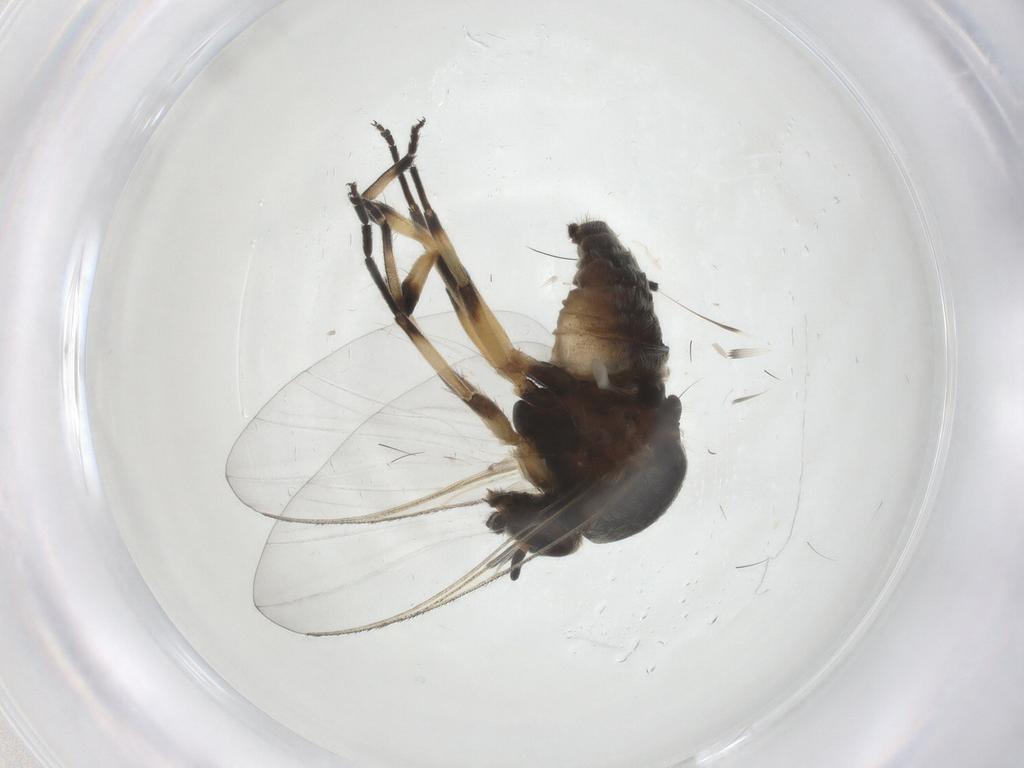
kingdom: Animalia
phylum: Arthropoda
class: Insecta
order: Diptera
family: Simuliidae
